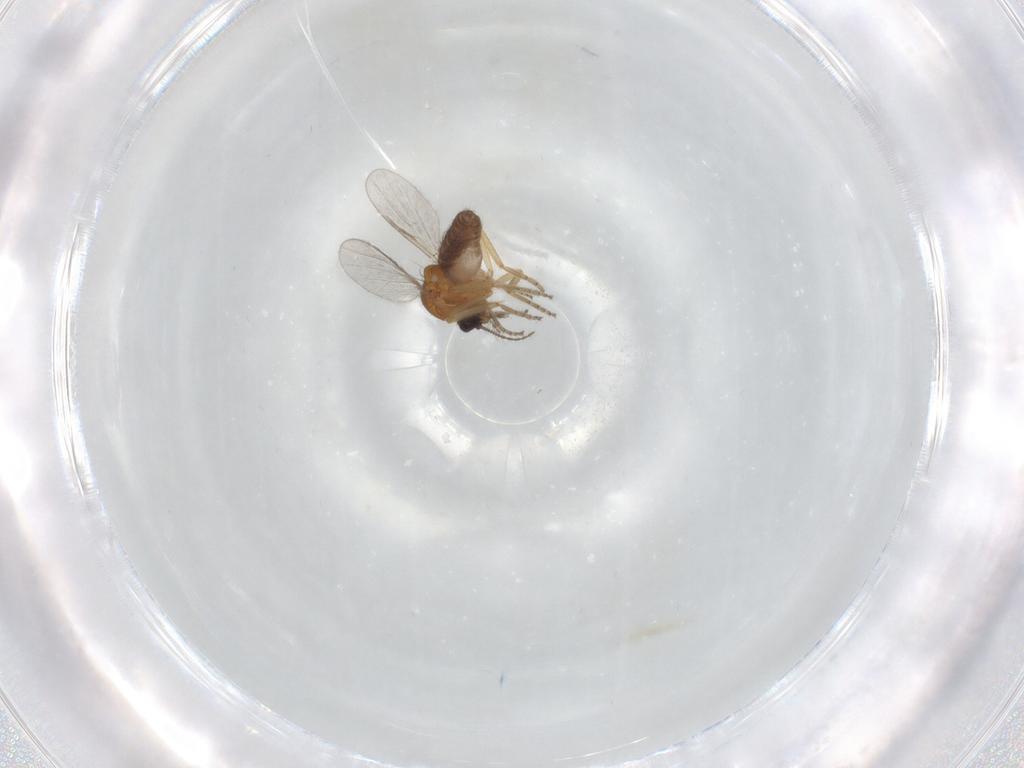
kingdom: Animalia
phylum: Arthropoda
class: Insecta
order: Diptera
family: Ceratopogonidae
